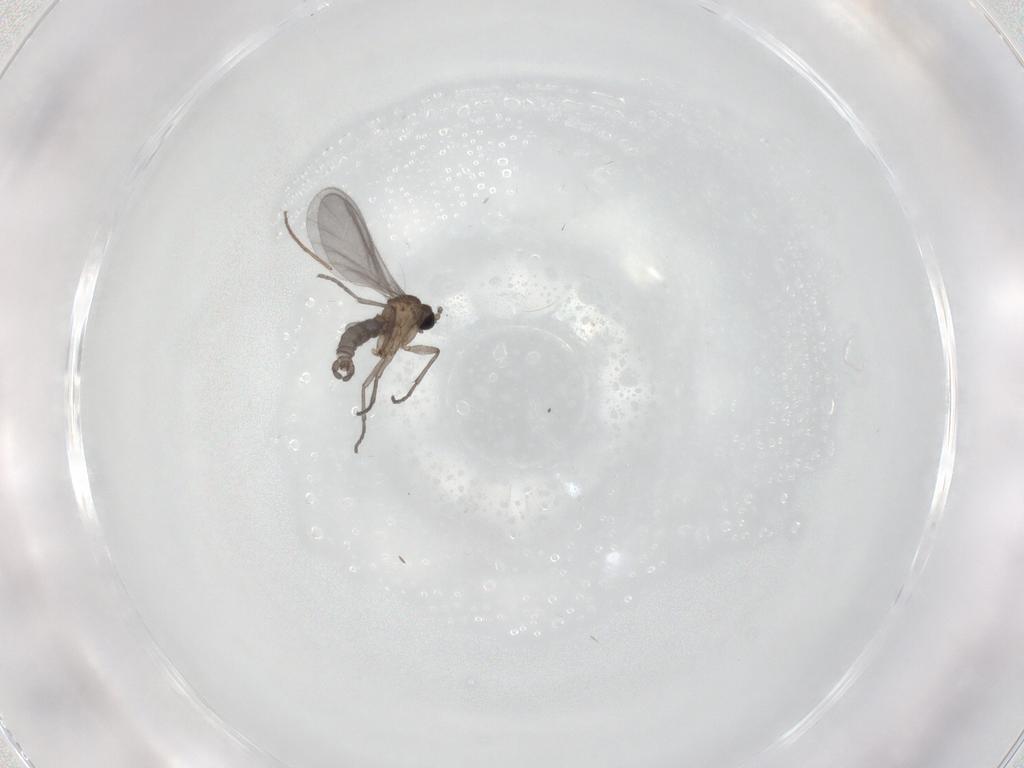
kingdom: Animalia
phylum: Arthropoda
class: Insecta
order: Diptera
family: Sciaridae
